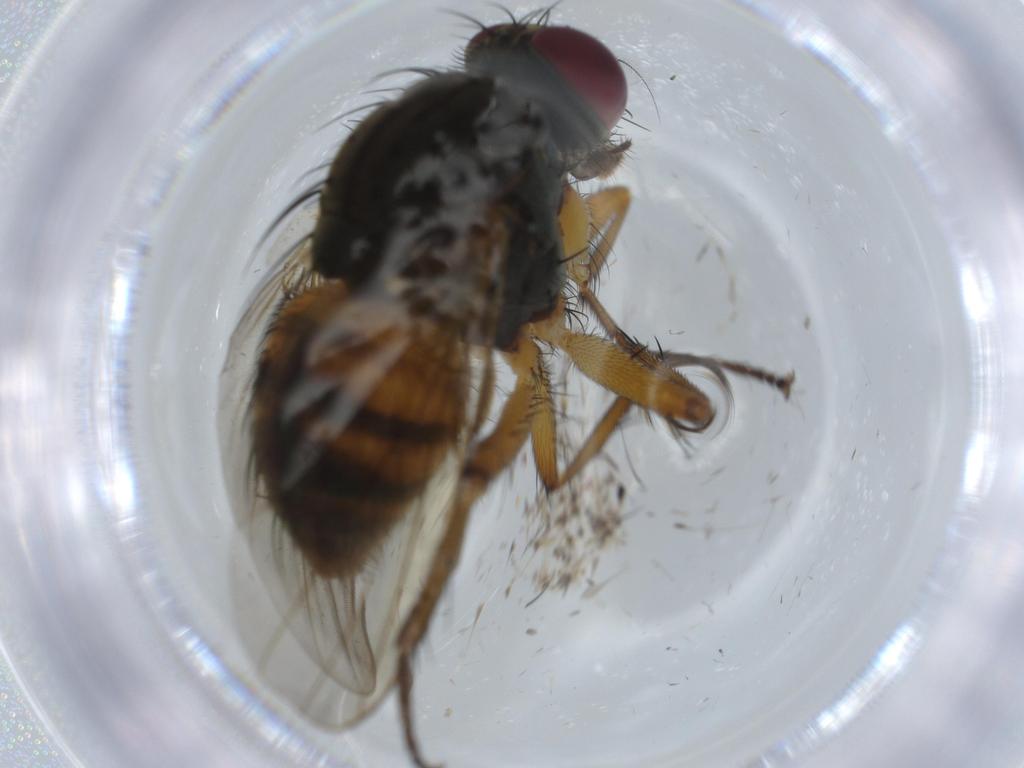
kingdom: Animalia
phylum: Arthropoda
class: Insecta
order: Diptera
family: Muscidae
